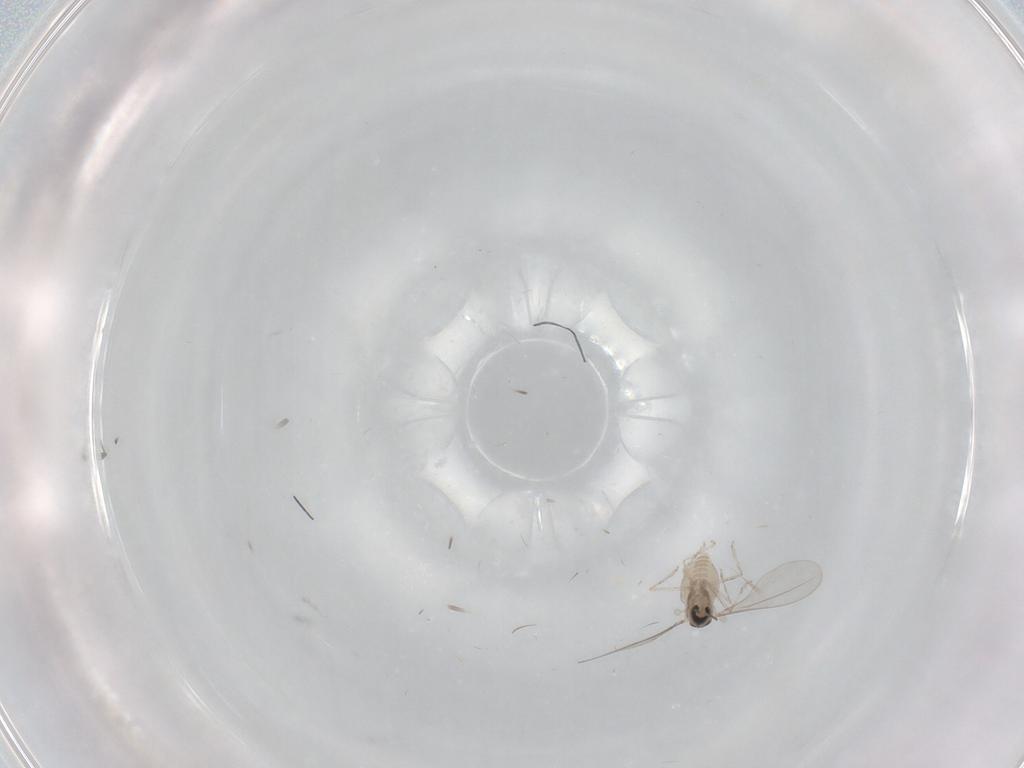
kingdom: Animalia
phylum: Arthropoda
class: Insecta
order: Diptera
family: Cecidomyiidae
